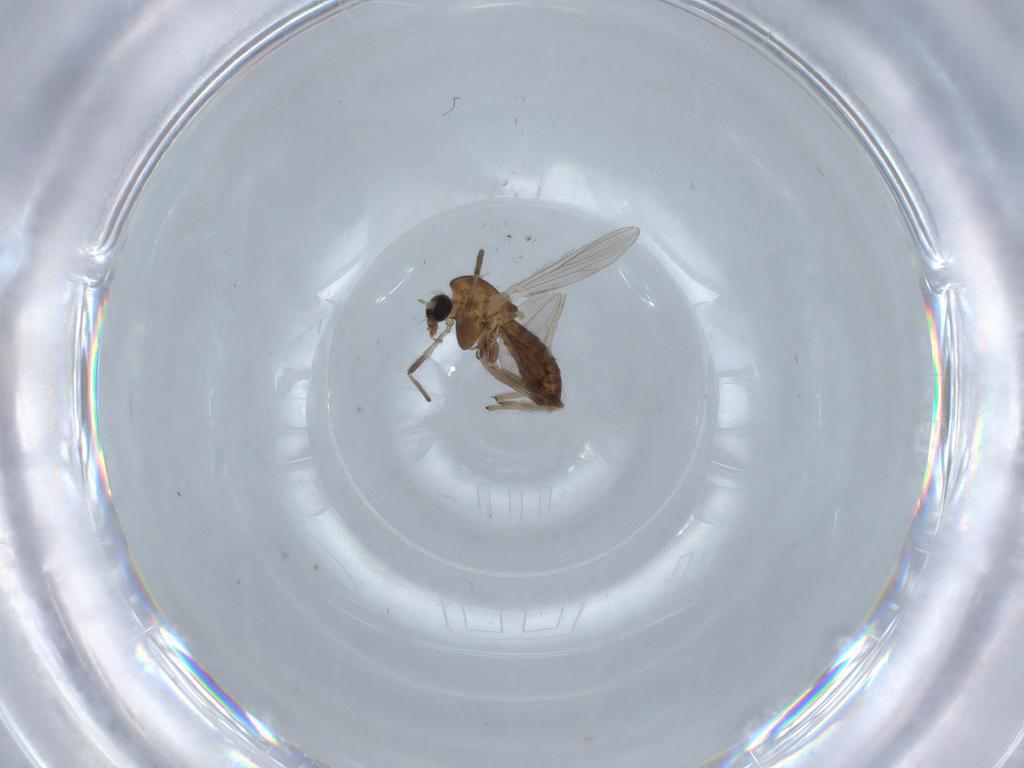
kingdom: Animalia
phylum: Arthropoda
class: Insecta
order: Diptera
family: Chironomidae
